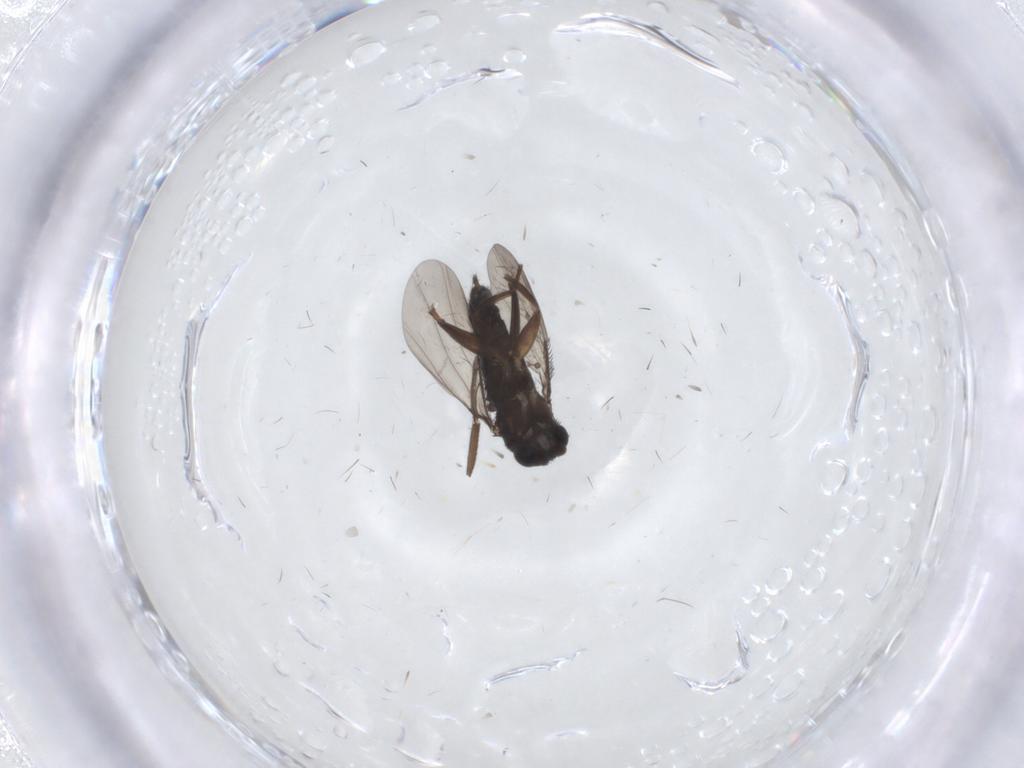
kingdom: Animalia
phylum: Arthropoda
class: Insecta
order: Diptera
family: Phoridae
